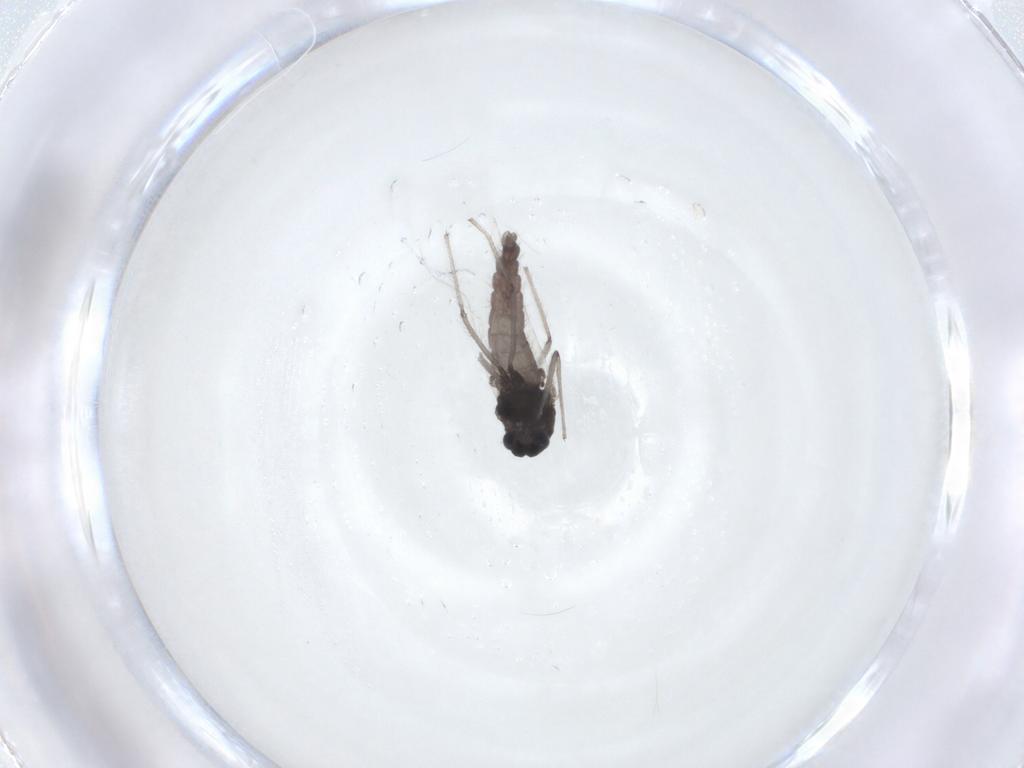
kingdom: Animalia
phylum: Arthropoda
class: Insecta
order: Diptera
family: Chironomidae
